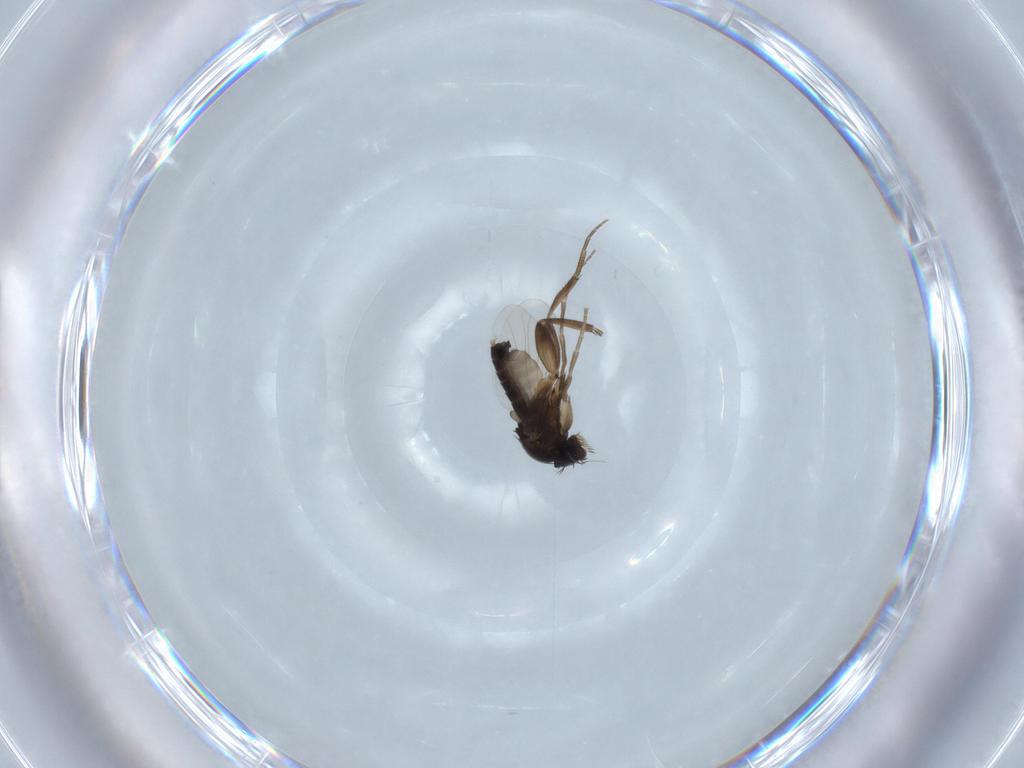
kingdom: Animalia
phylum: Arthropoda
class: Insecta
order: Diptera
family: Phoridae
